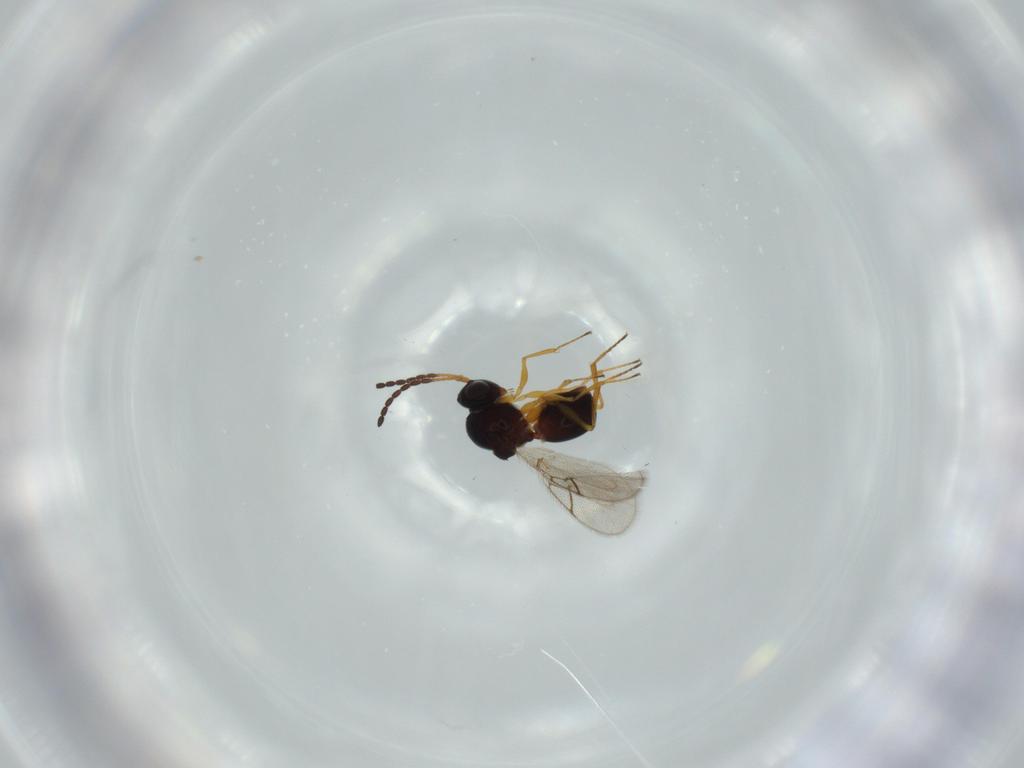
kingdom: Animalia
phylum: Arthropoda
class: Insecta
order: Hymenoptera
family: Figitidae
